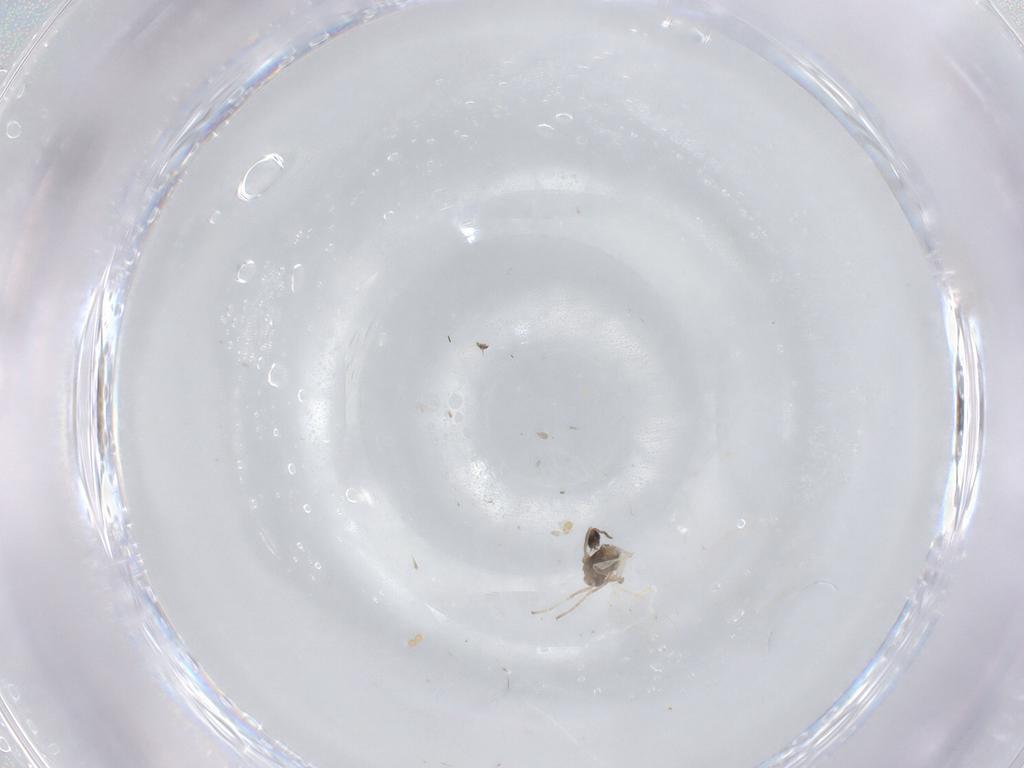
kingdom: Animalia
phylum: Arthropoda
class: Insecta
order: Diptera
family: Cecidomyiidae
